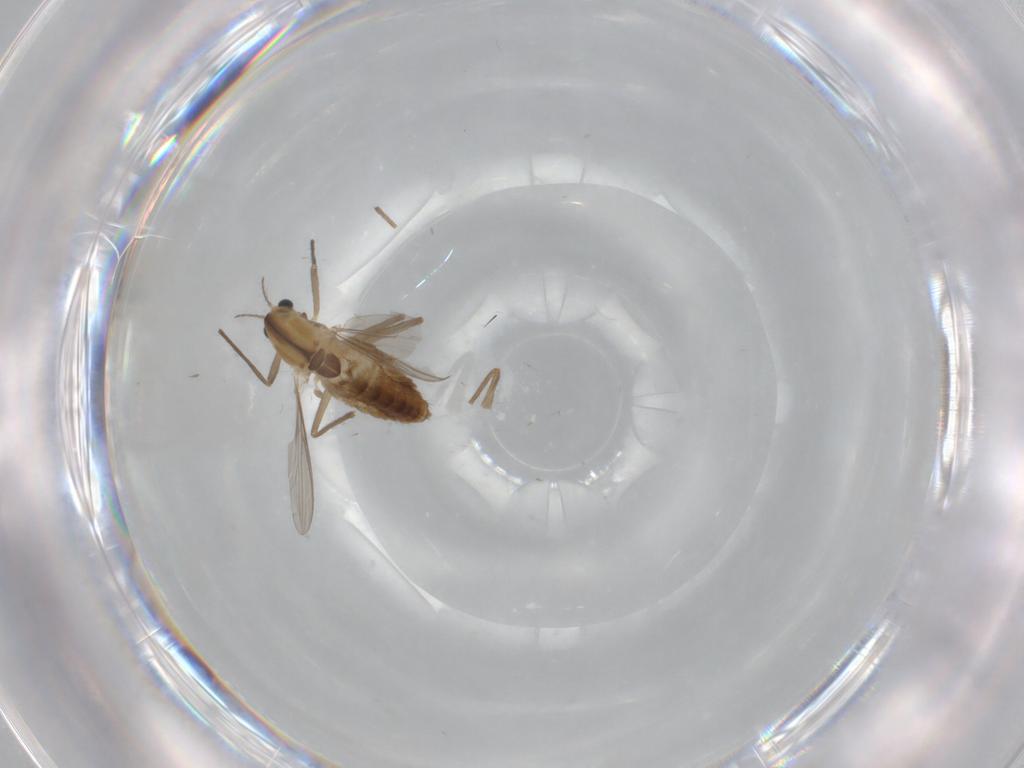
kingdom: Animalia
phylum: Arthropoda
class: Insecta
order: Diptera
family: Chironomidae
